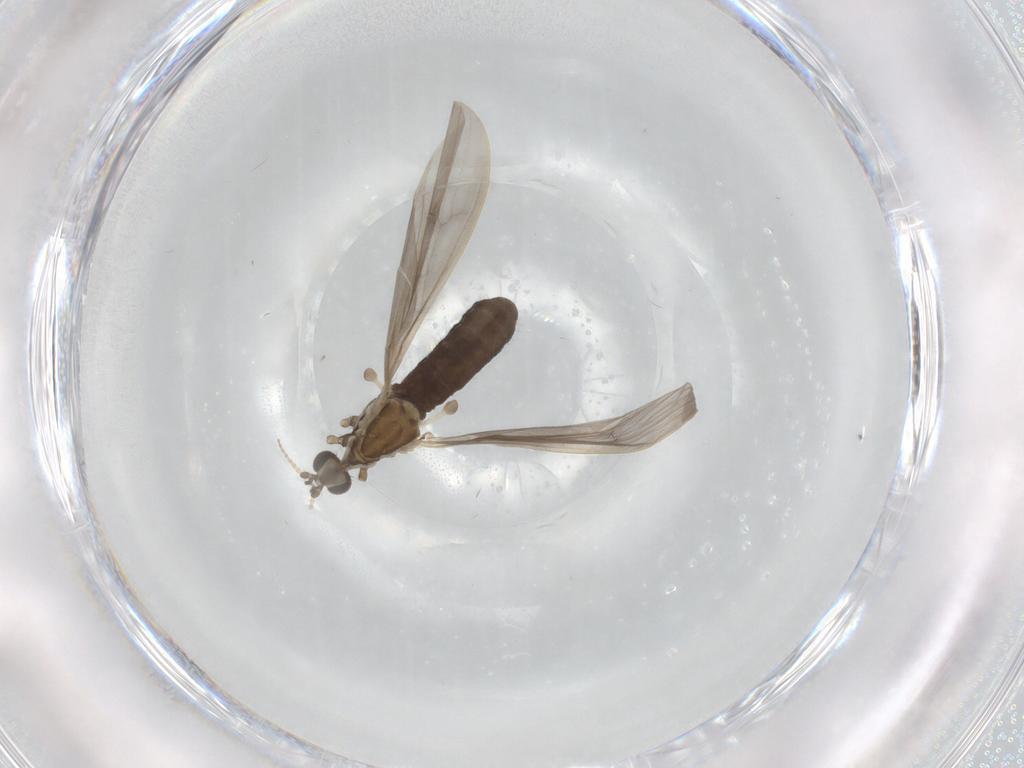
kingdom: Animalia
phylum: Arthropoda
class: Insecta
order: Diptera
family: Limoniidae
